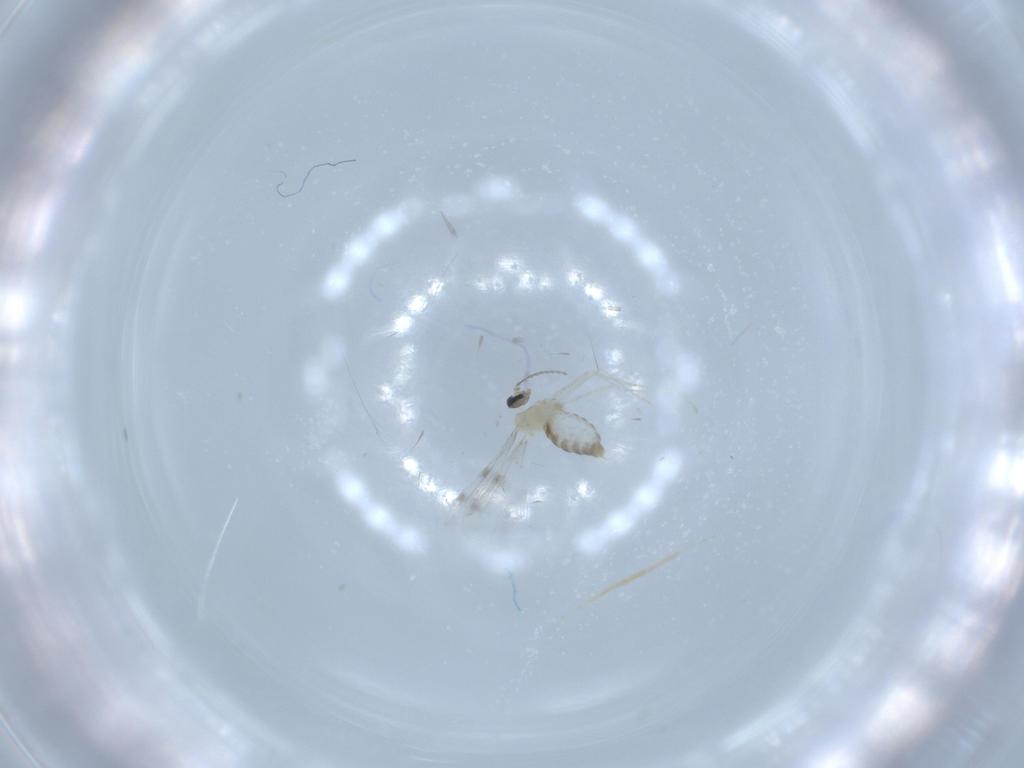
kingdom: Animalia
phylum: Arthropoda
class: Insecta
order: Diptera
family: Cecidomyiidae
